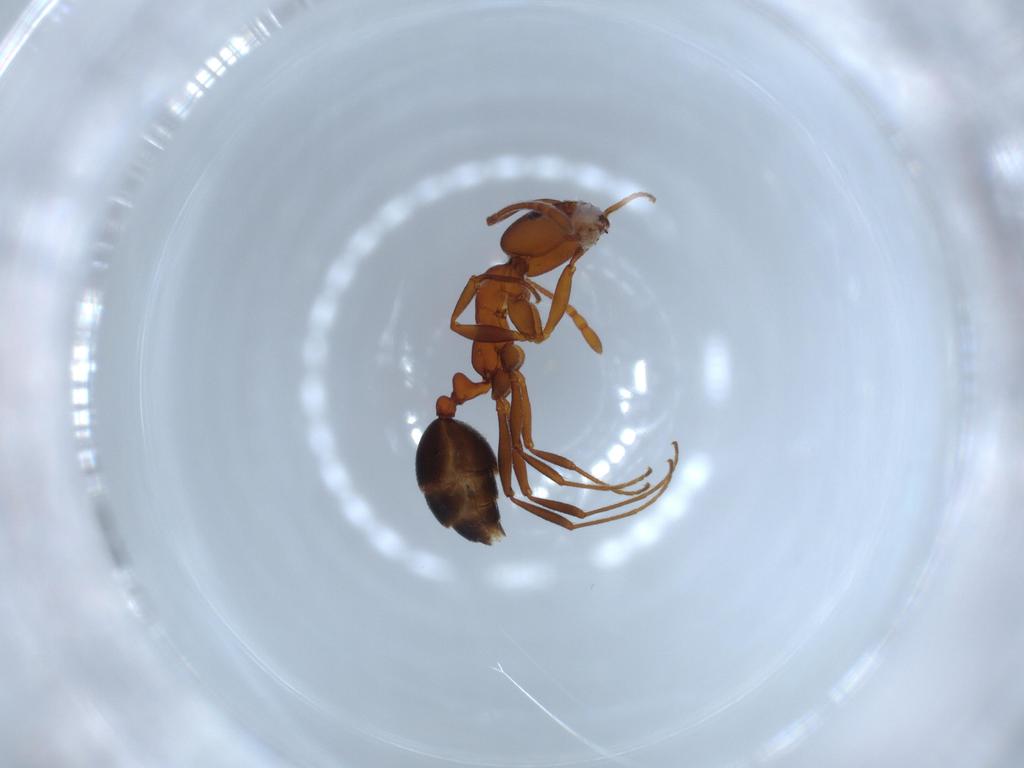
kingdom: Animalia
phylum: Arthropoda
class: Insecta
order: Hymenoptera
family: Formicidae
